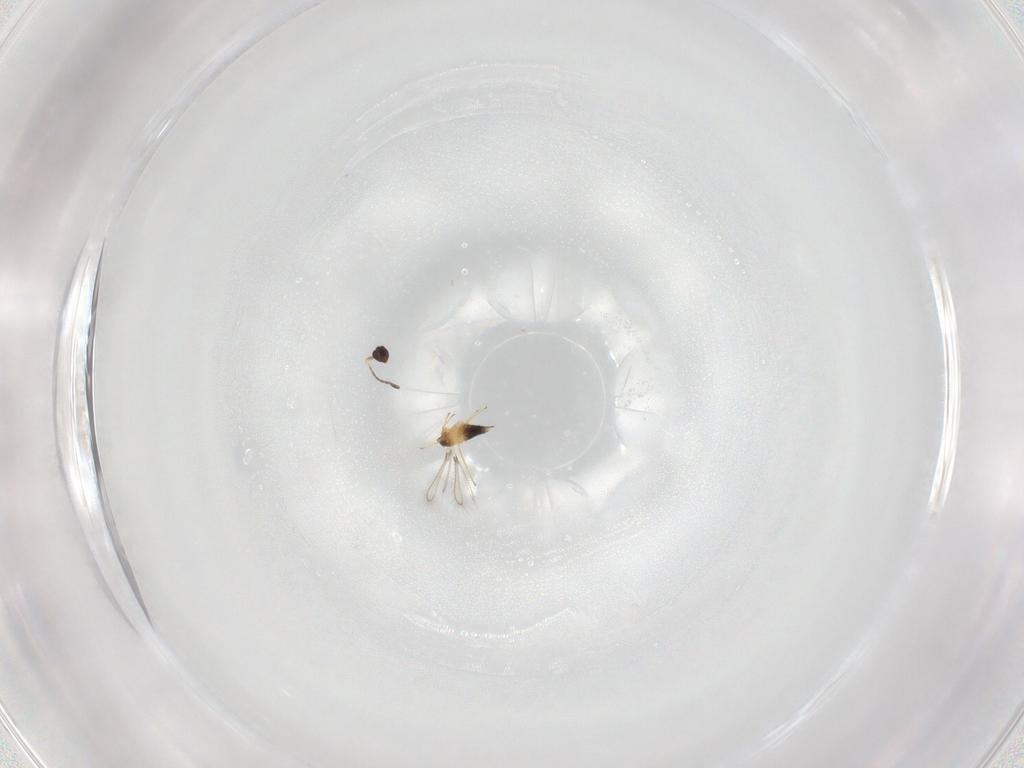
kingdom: Animalia
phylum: Arthropoda
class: Insecta
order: Hymenoptera
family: Mymaridae
